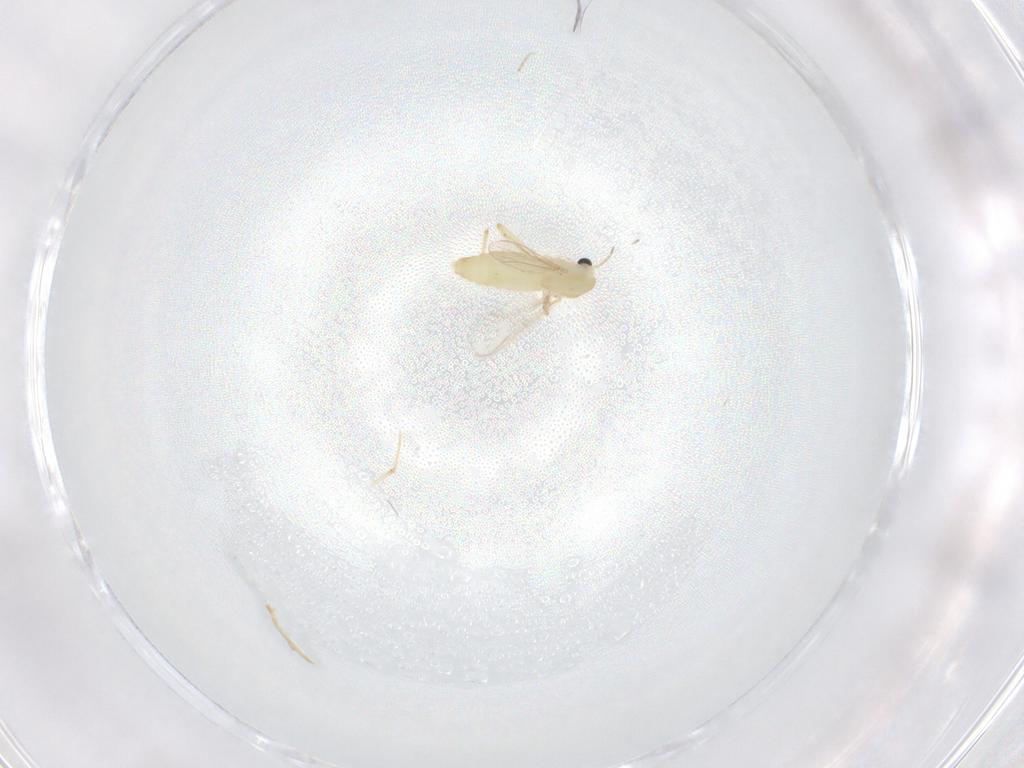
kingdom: Animalia
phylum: Arthropoda
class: Insecta
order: Diptera
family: Chironomidae
